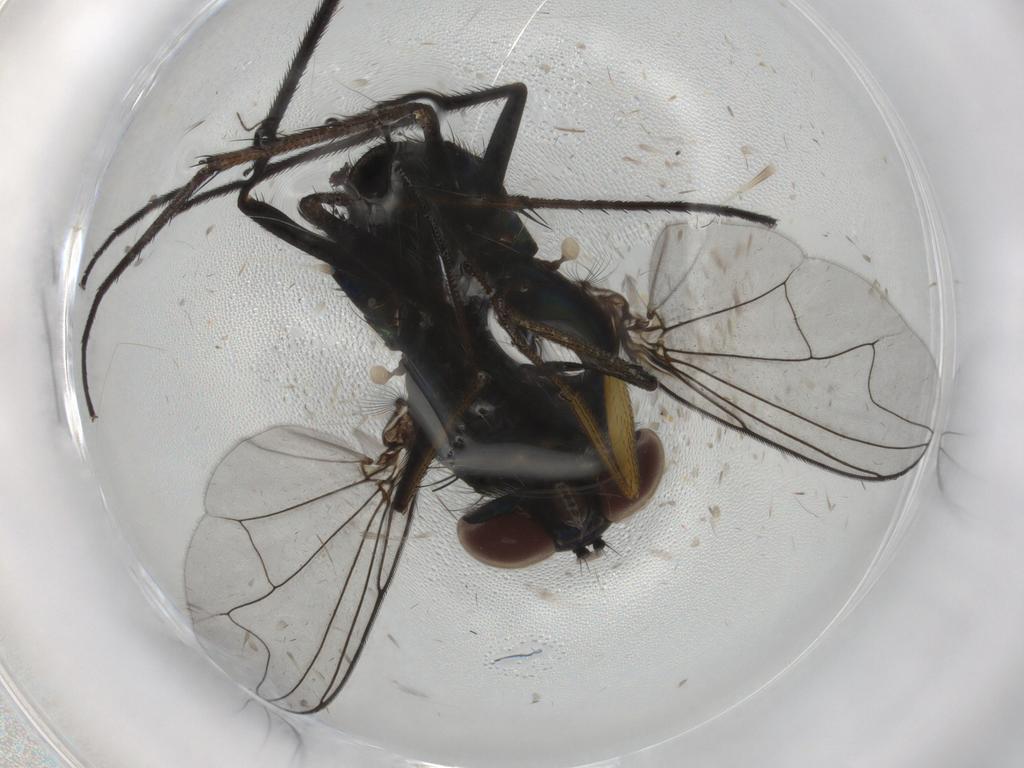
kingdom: Animalia
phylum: Arthropoda
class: Insecta
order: Diptera
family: Dolichopodidae
